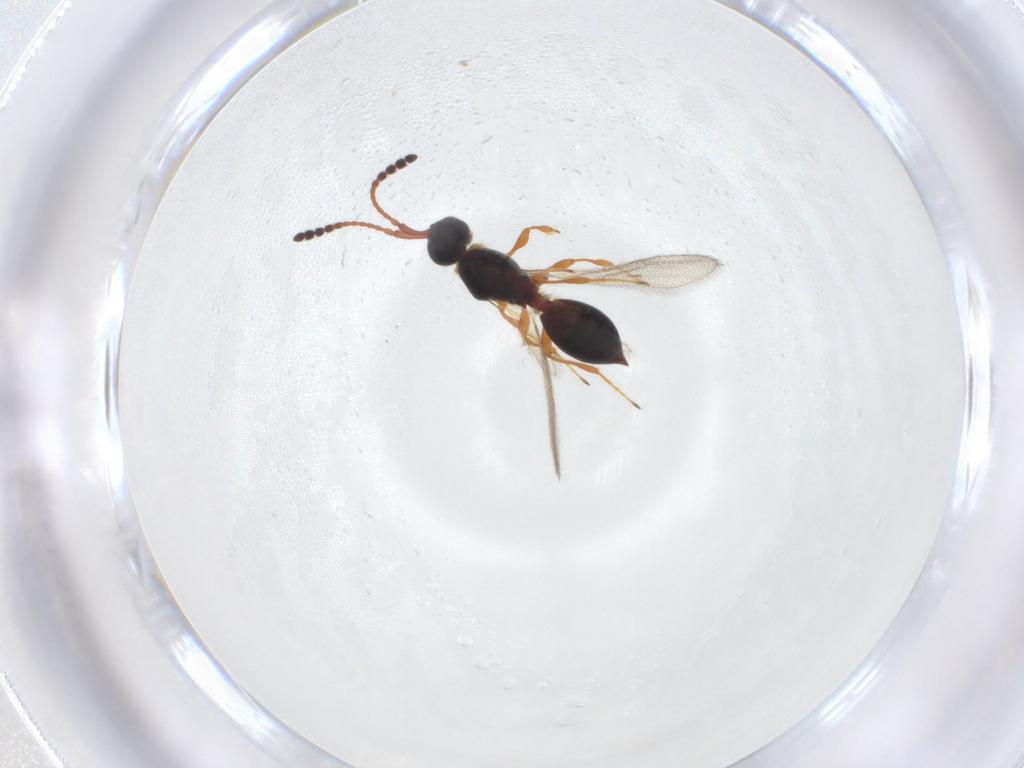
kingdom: Animalia
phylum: Arthropoda
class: Insecta
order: Hymenoptera
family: Diapriidae
